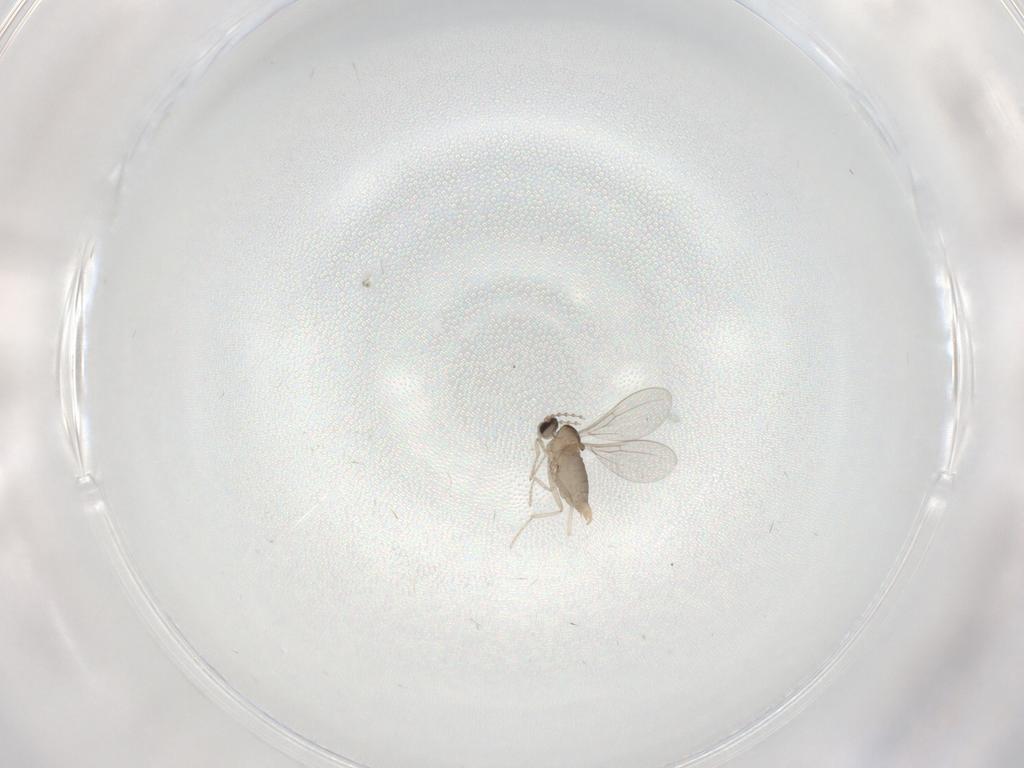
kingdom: Animalia
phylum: Arthropoda
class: Insecta
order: Diptera
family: Cecidomyiidae
